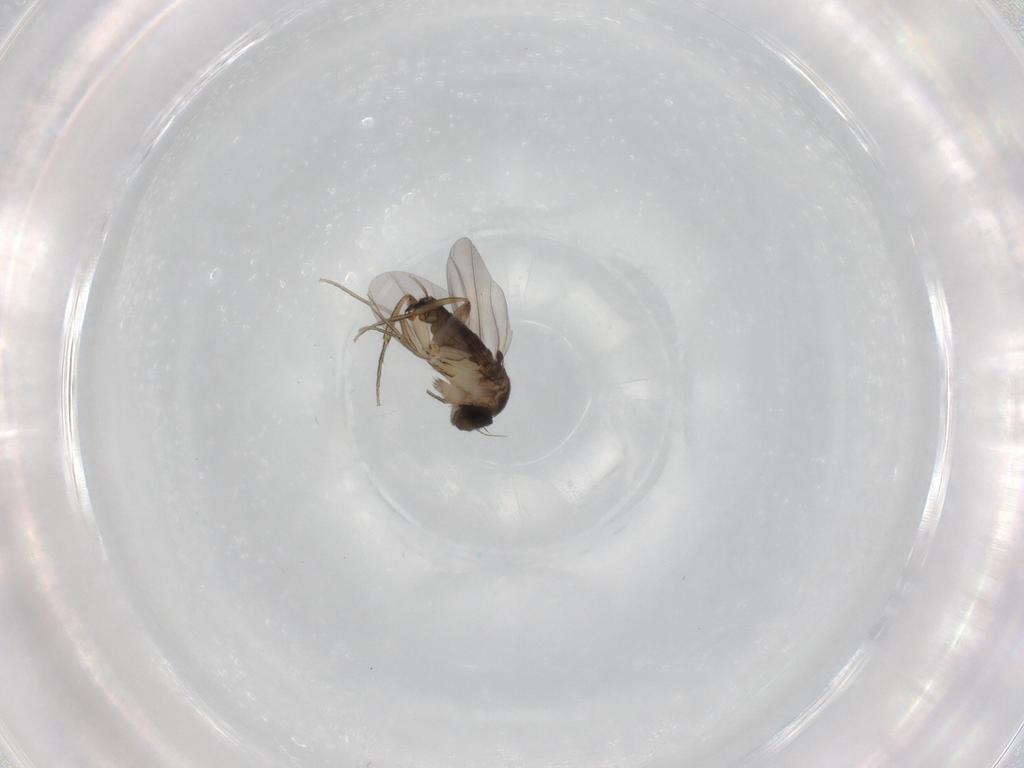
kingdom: Animalia
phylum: Arthropoda
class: Insecta
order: Diptera
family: Phoridae
